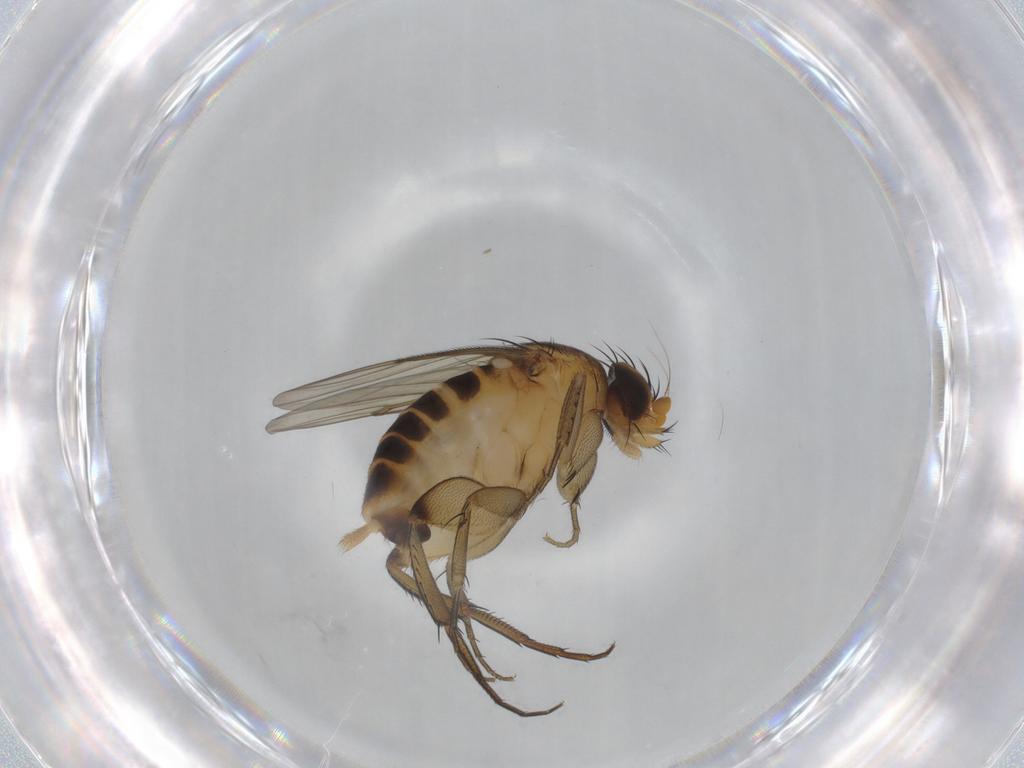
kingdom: Animalia
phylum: Arthropoda
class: Insecta
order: Diptera
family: Phoridae
